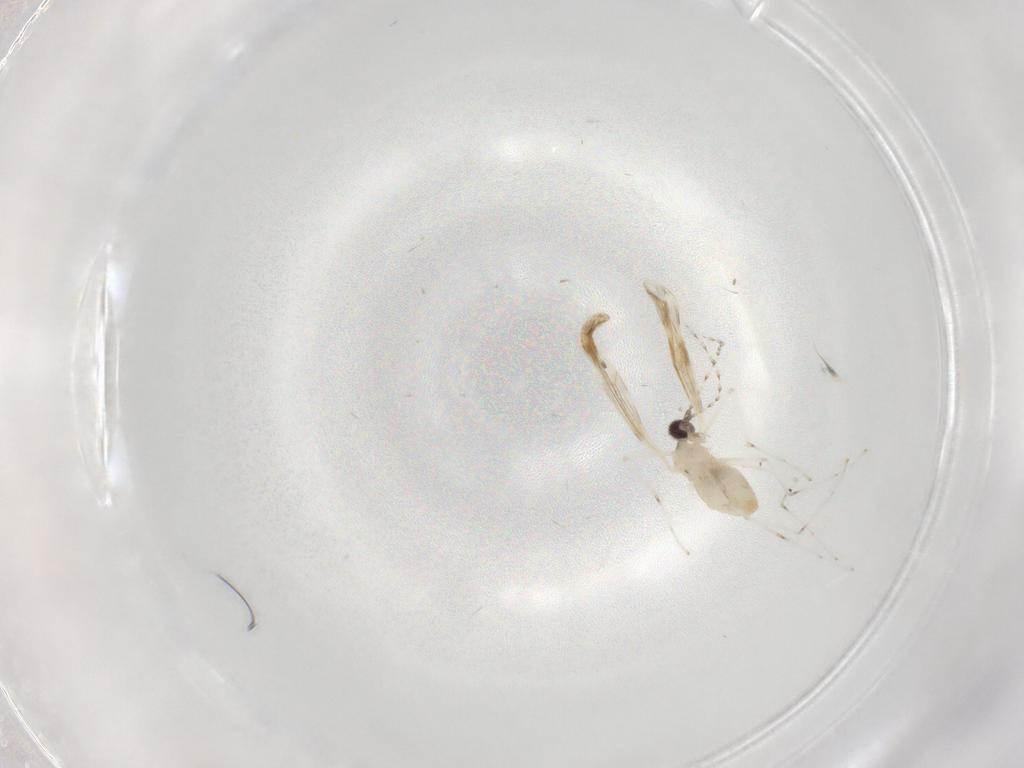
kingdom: Animalia
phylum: Arthropoda
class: Insecta
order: Diptera
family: Cecidomyiidae
